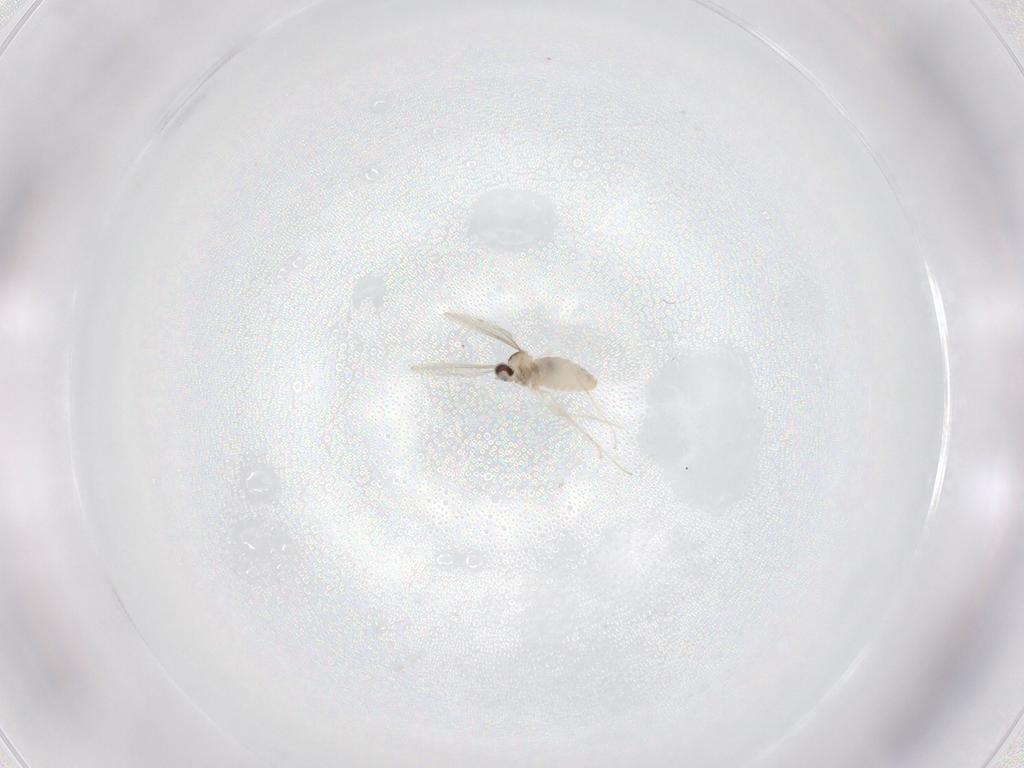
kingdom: Animalia
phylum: Arthropoda
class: Insecta
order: Diptera
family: Cecidomyiidae
